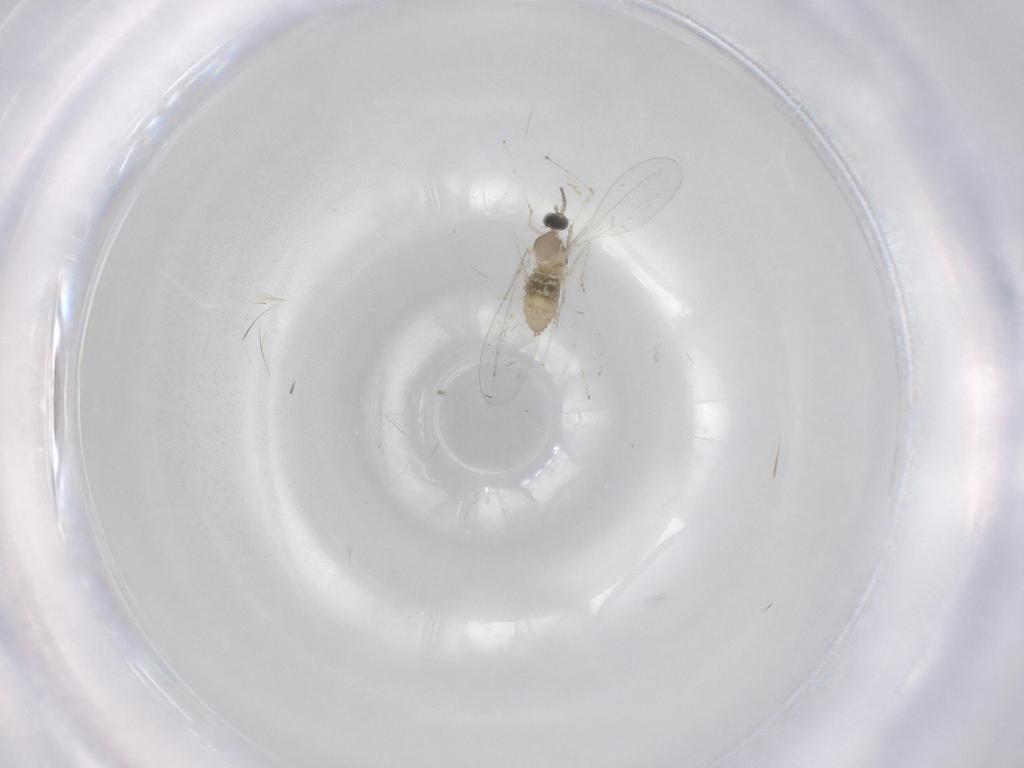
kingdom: Animalia
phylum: Arthropoda
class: Insecta
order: Diptera
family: Cecidomyiidae
